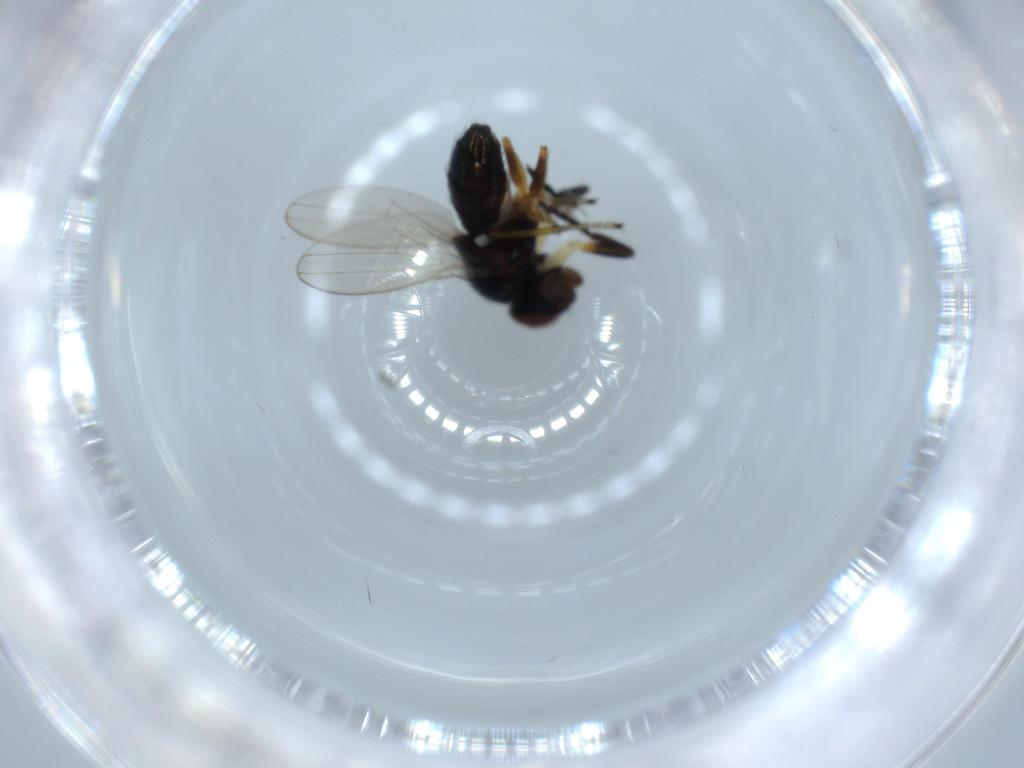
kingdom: Animalia
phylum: Arthropoda
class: Insecta
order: Diptera
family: Ephydridae
